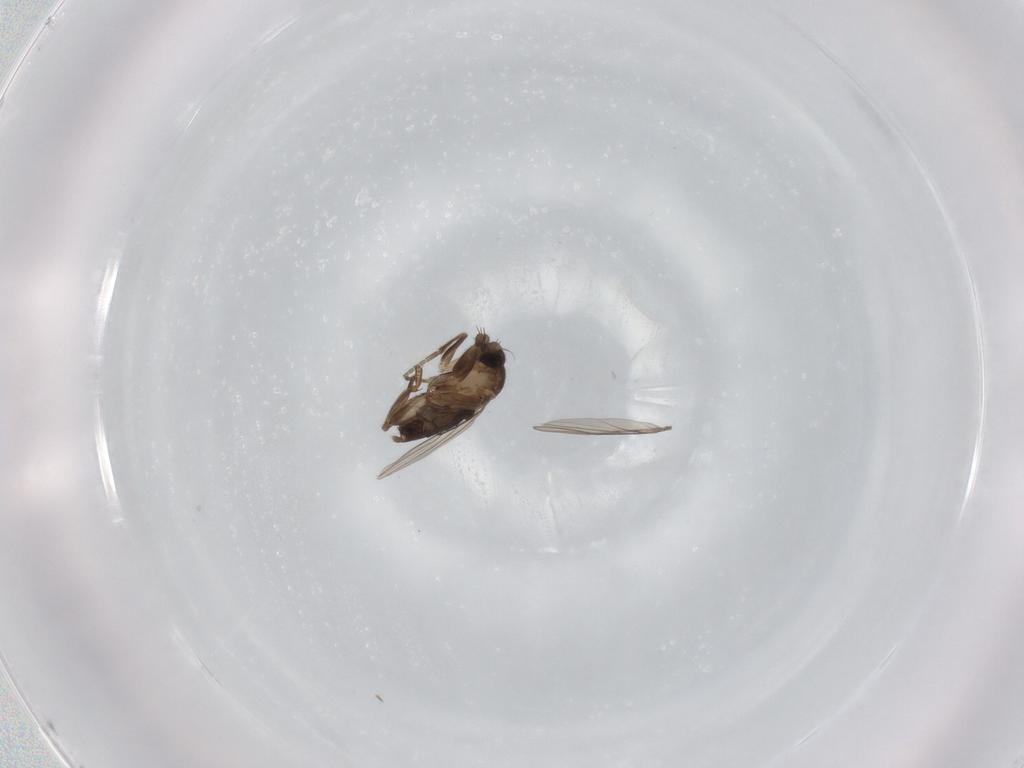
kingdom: Animalia
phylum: Arthropoda
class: Insecta
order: Diptera
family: Phoridae
